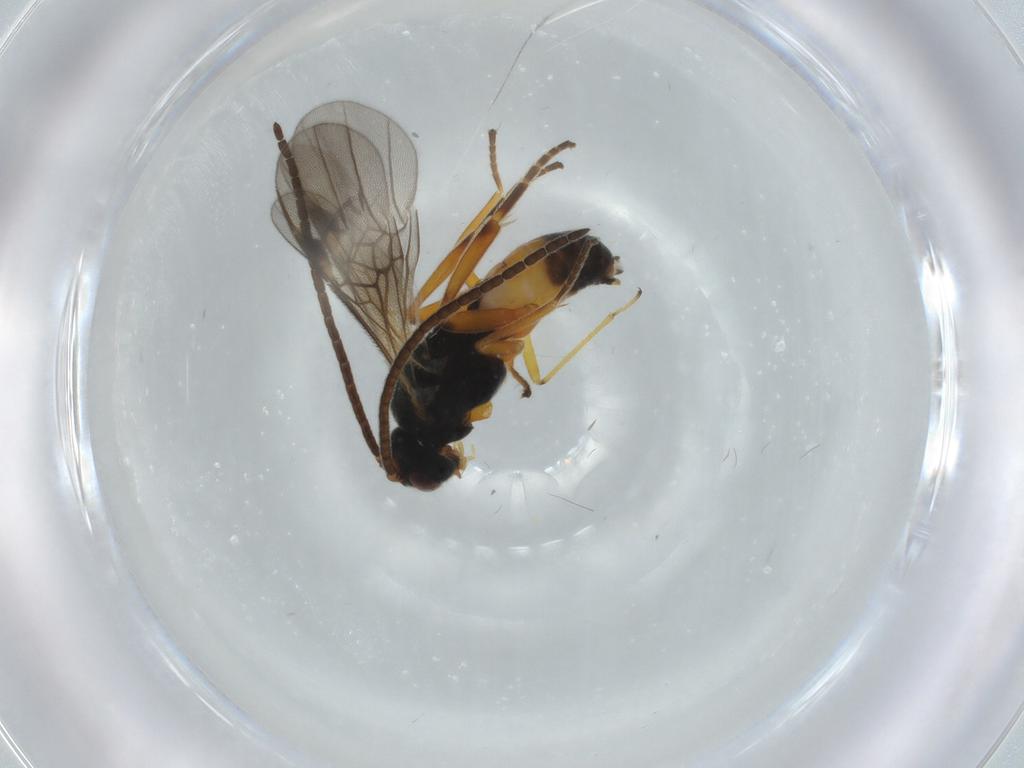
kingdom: Animalia
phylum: Arthropoda
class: Insecta
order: Hymenoptera
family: Braconidae
